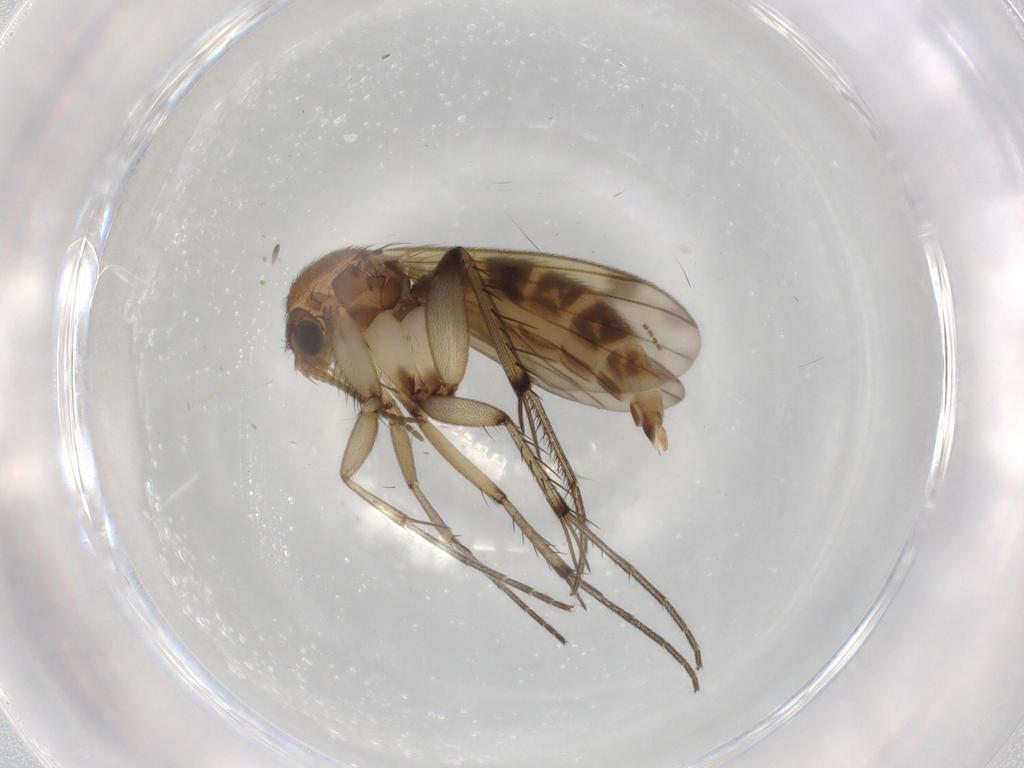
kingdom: Animalia
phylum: Arthropoda
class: Insecta
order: Diptera
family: Mycetophilidae
